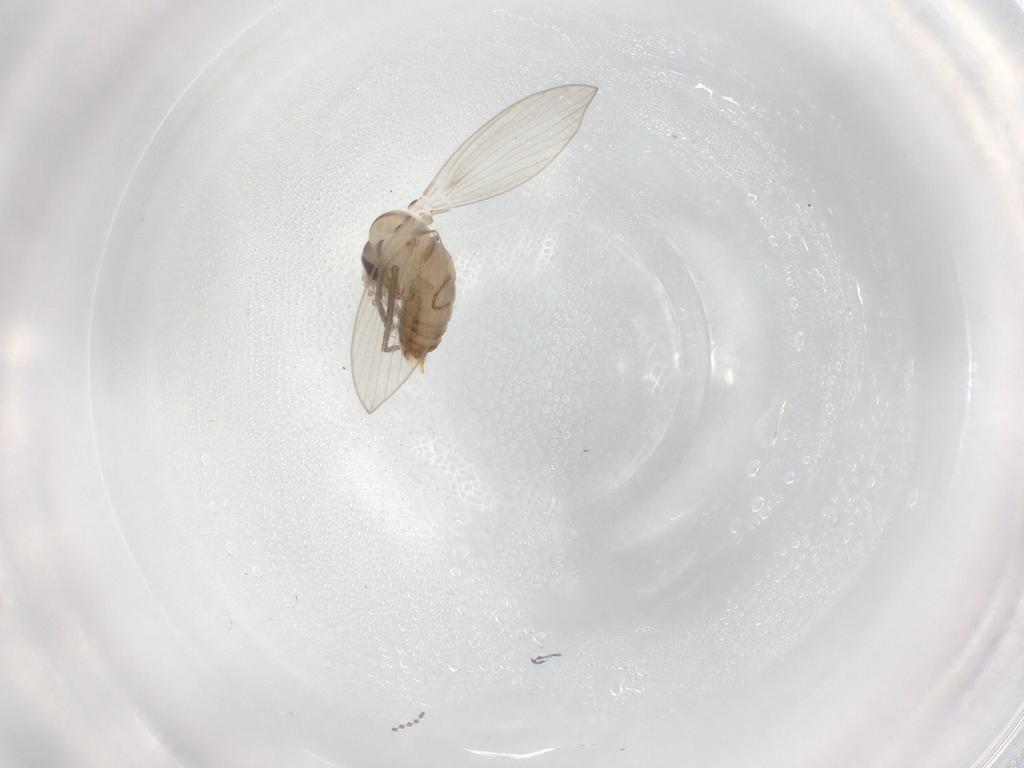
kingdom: Animalia
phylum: Arthropoda
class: Insecta
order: Diptera
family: Psychodidae
